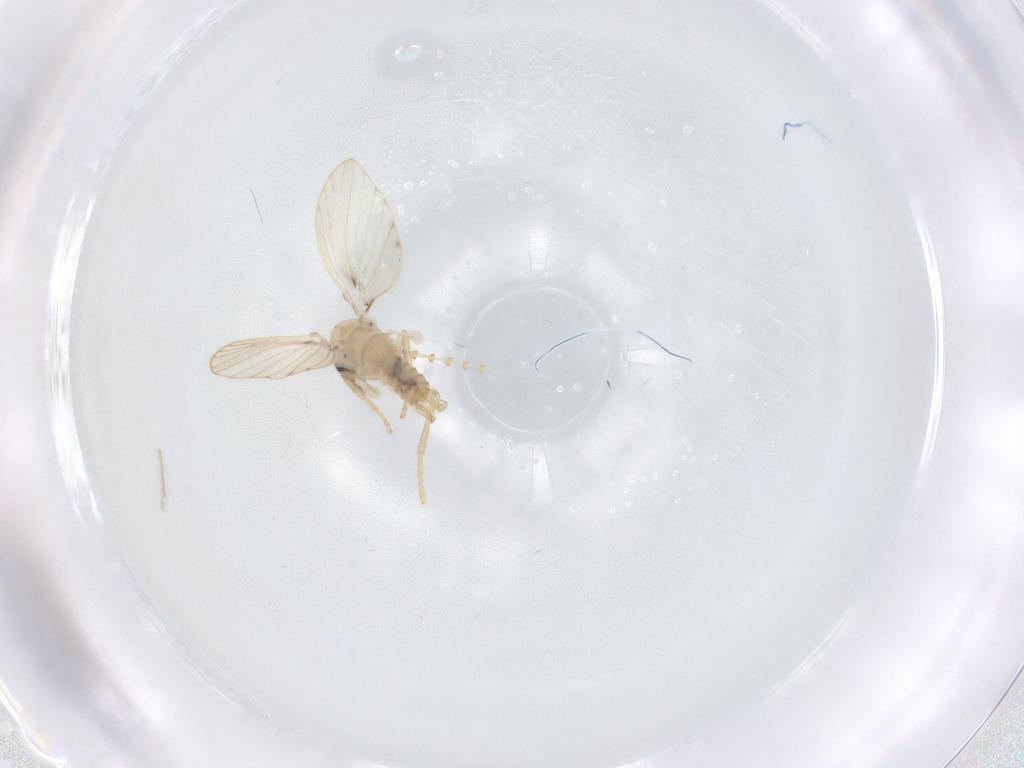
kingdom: Animalia
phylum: Arthropoda
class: Insecta
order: Diptera
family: Psychodidae
